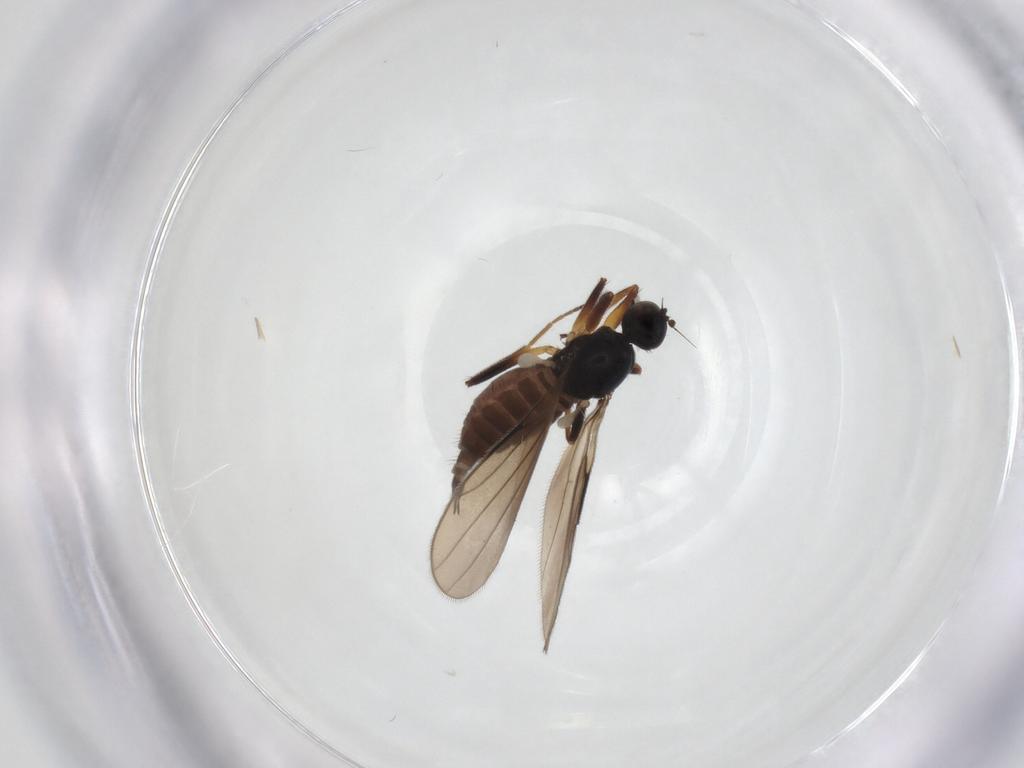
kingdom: Animalia
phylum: Arthropoda
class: Insecta
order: Diptera
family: Hybotidae
